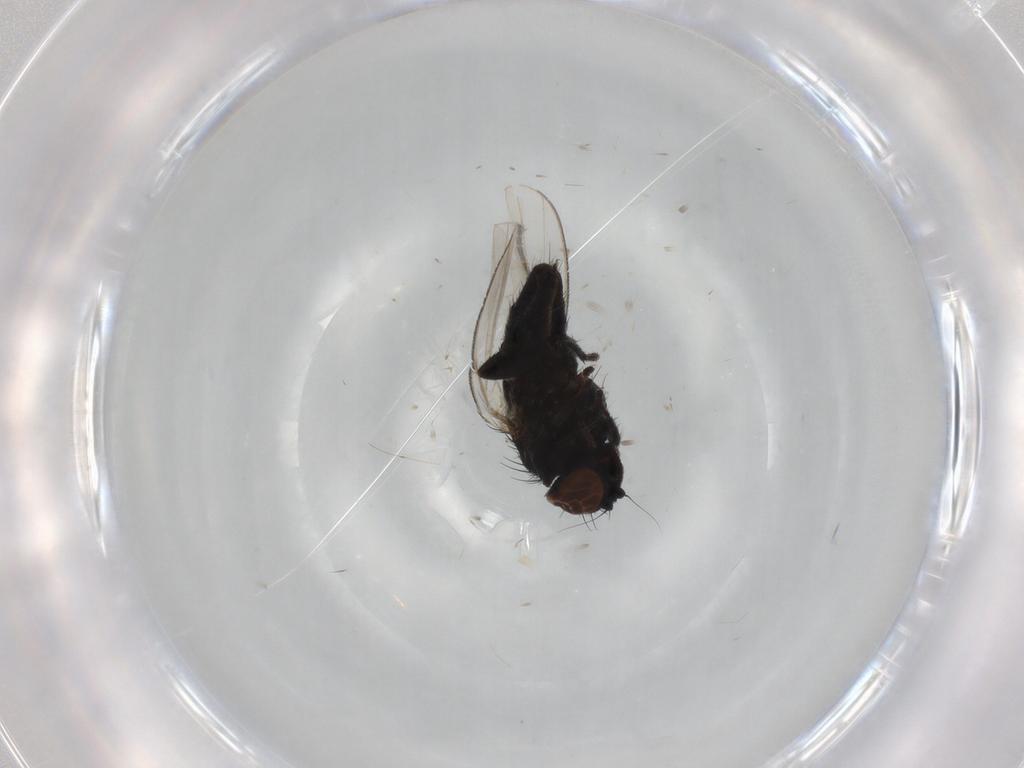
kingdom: Animalia
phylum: Arthropoda
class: Insecta
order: Diptera
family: Milichiidae
